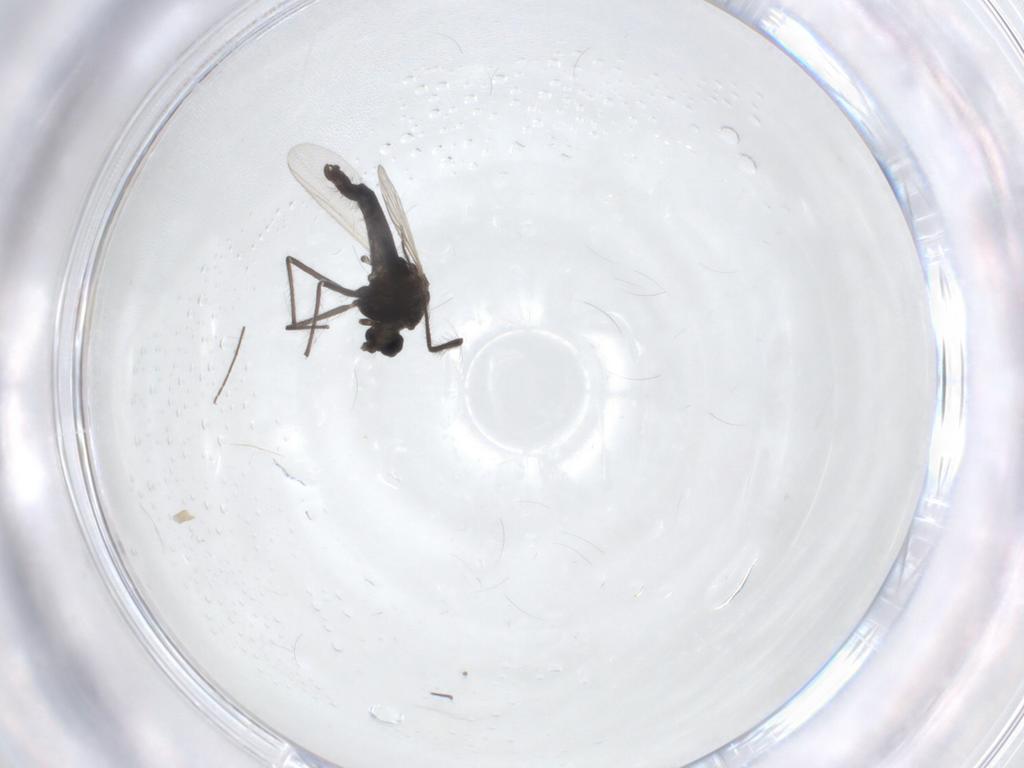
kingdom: Animalia
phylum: Arthropoda
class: Insecta
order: Diptera
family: Chironomidae
